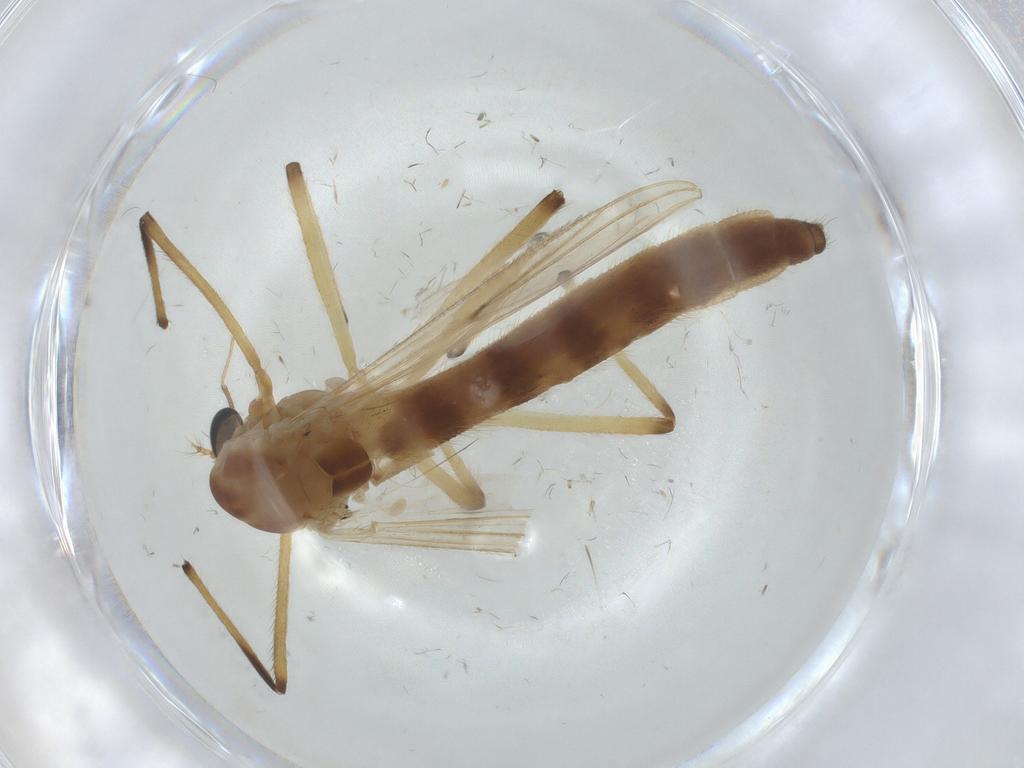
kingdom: Animalia
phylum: Arthropoda
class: Insecta
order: Diptera
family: Chironomidae
